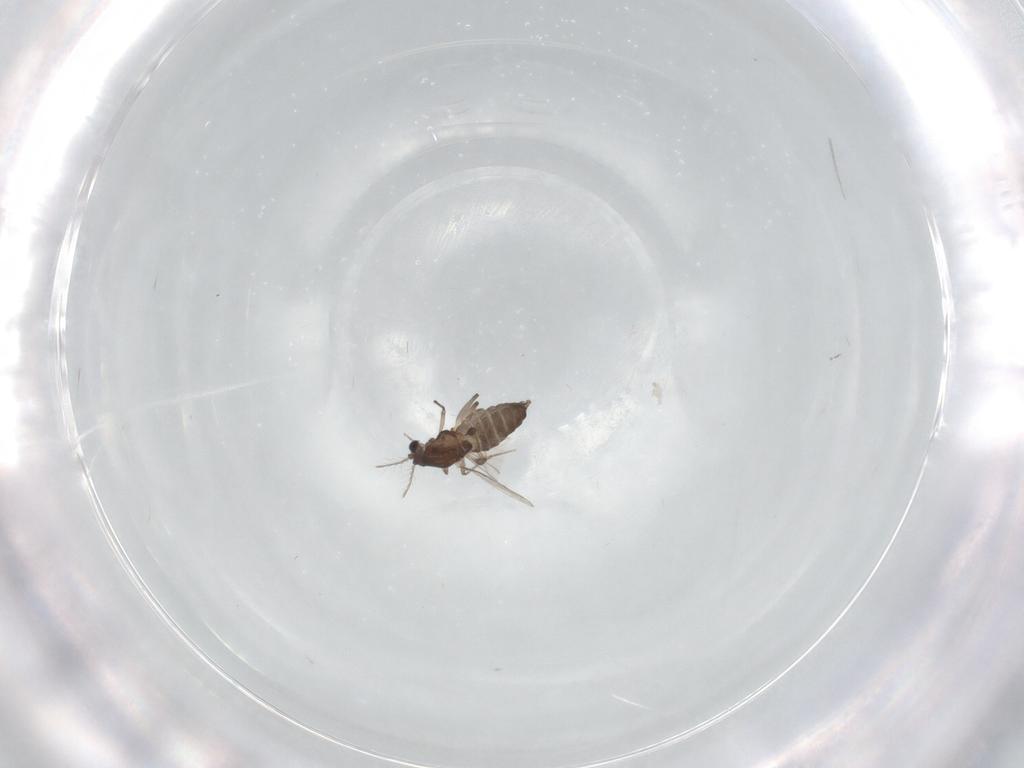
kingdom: Animalia
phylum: Arthropoda
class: Insecta
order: Diptera
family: Chironomidae
